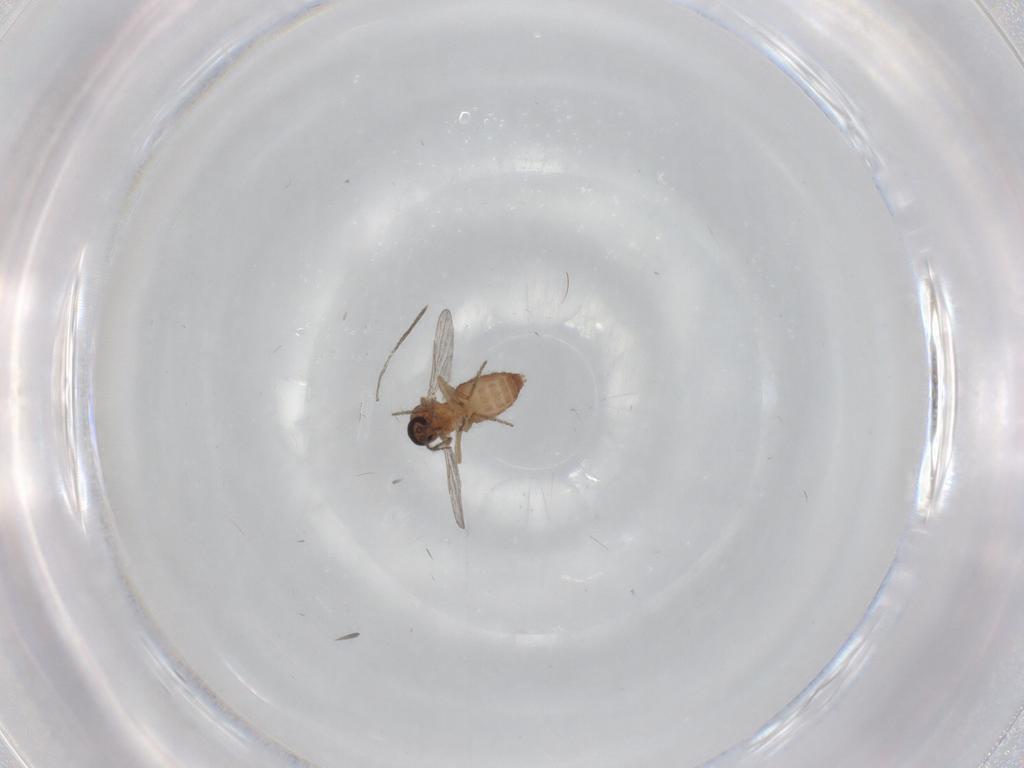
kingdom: Animalia
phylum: Arthropoda
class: Insecta
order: Diptera
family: Ceratopogonidae
